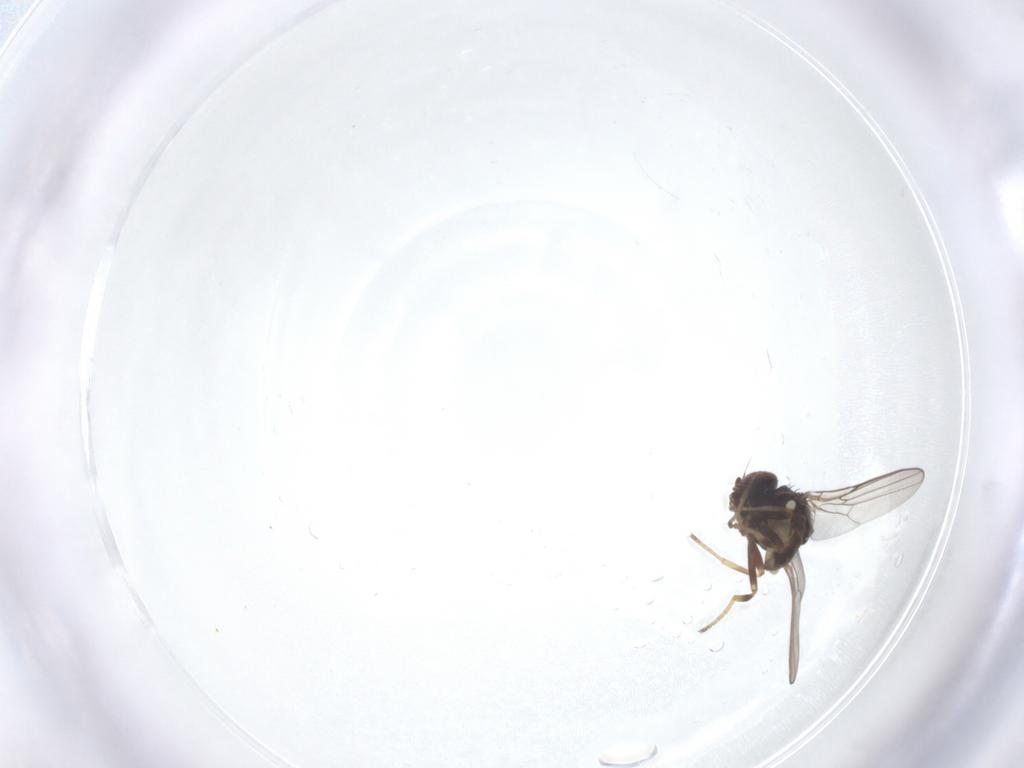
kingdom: Animalia
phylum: Arthropoda
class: Insecta
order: Diptera
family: Chloropidae
